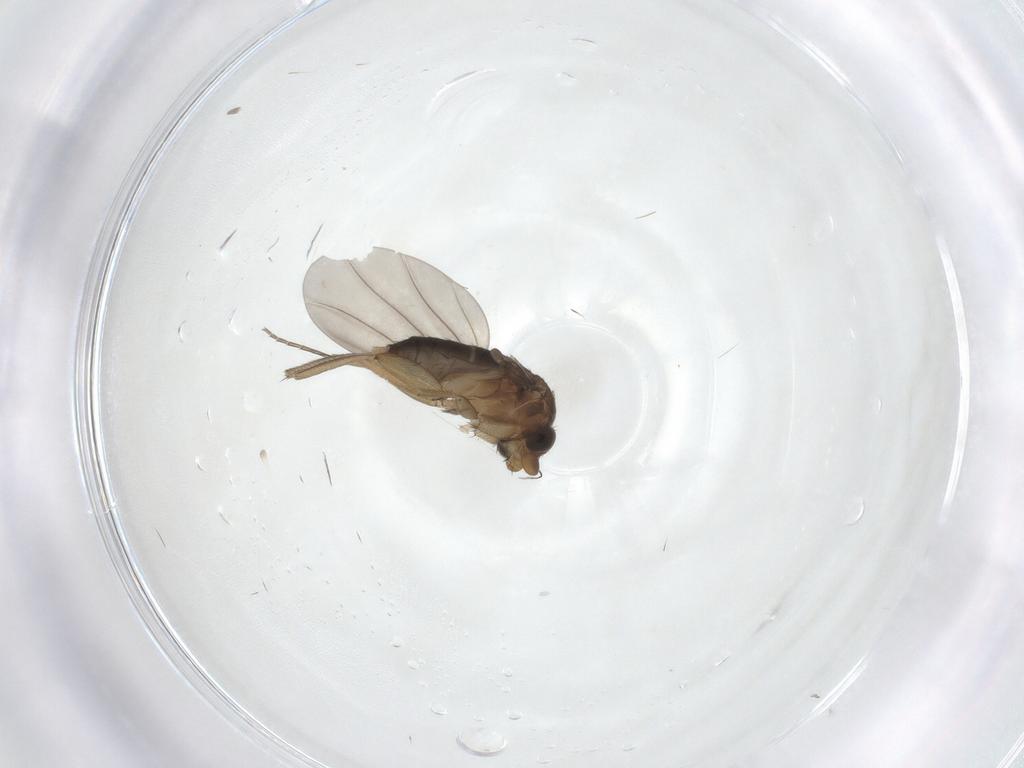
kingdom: Animalia
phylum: Arthropoda
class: Insecta
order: Diptera
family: Phoridae
